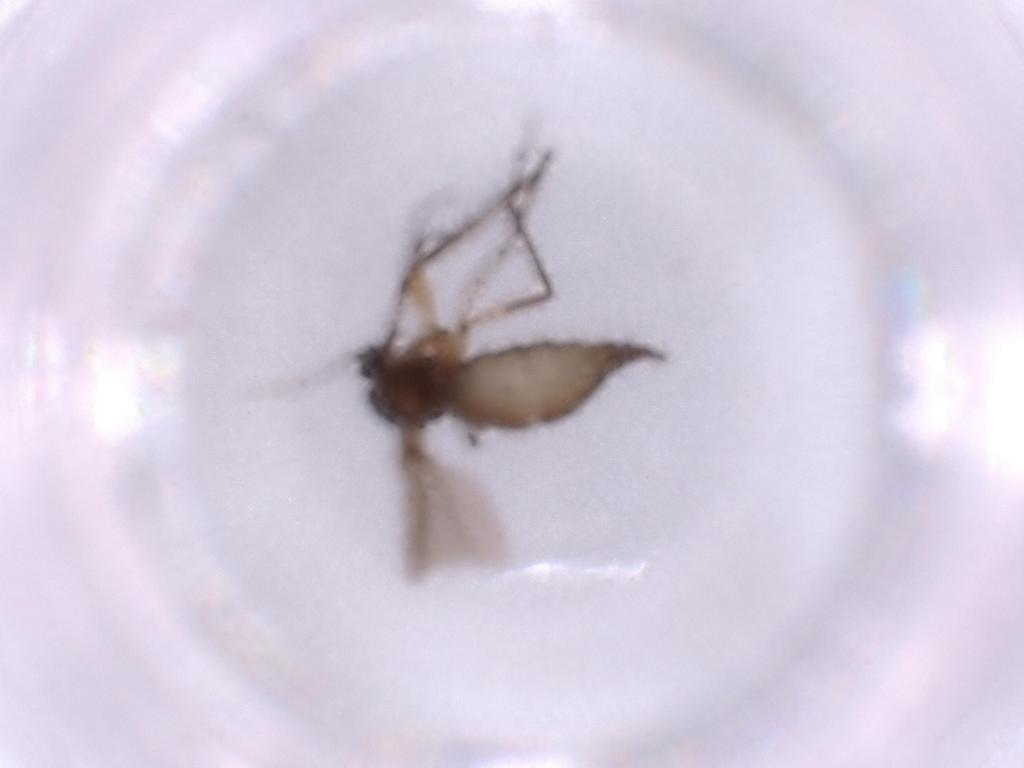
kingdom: Animalia
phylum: Arthropoda
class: Insecta
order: Diptera
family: Sciaridae
